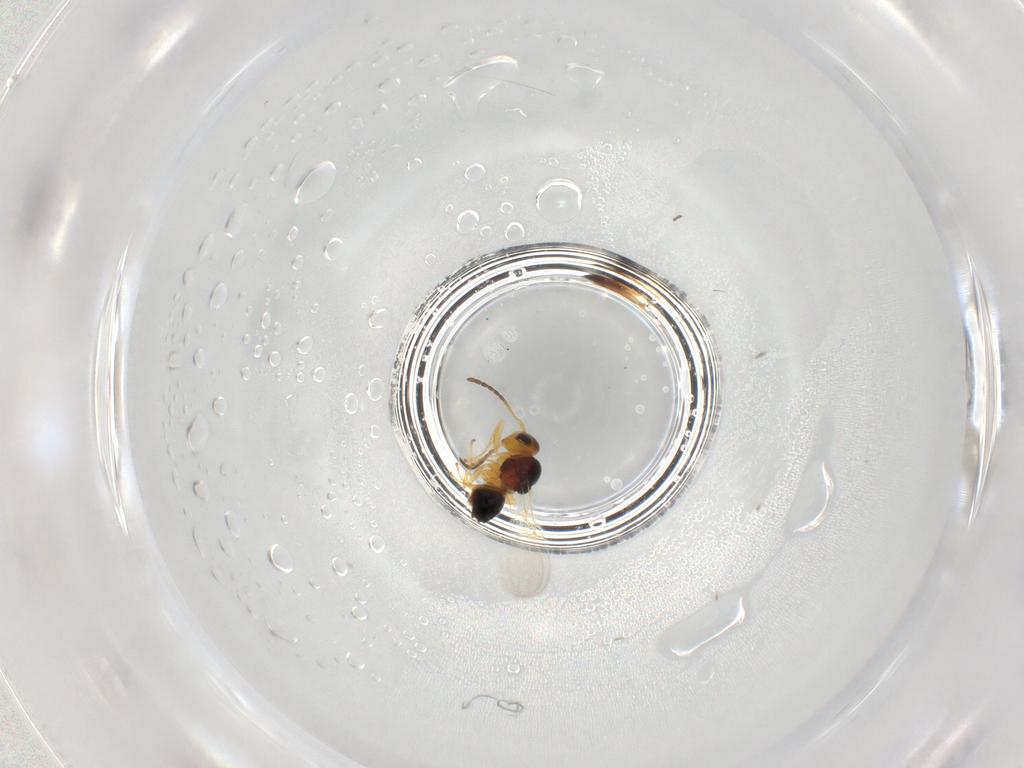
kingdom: Animalia
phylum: Arthropoda
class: Insecta
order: Hymenoptera
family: Figitidae
